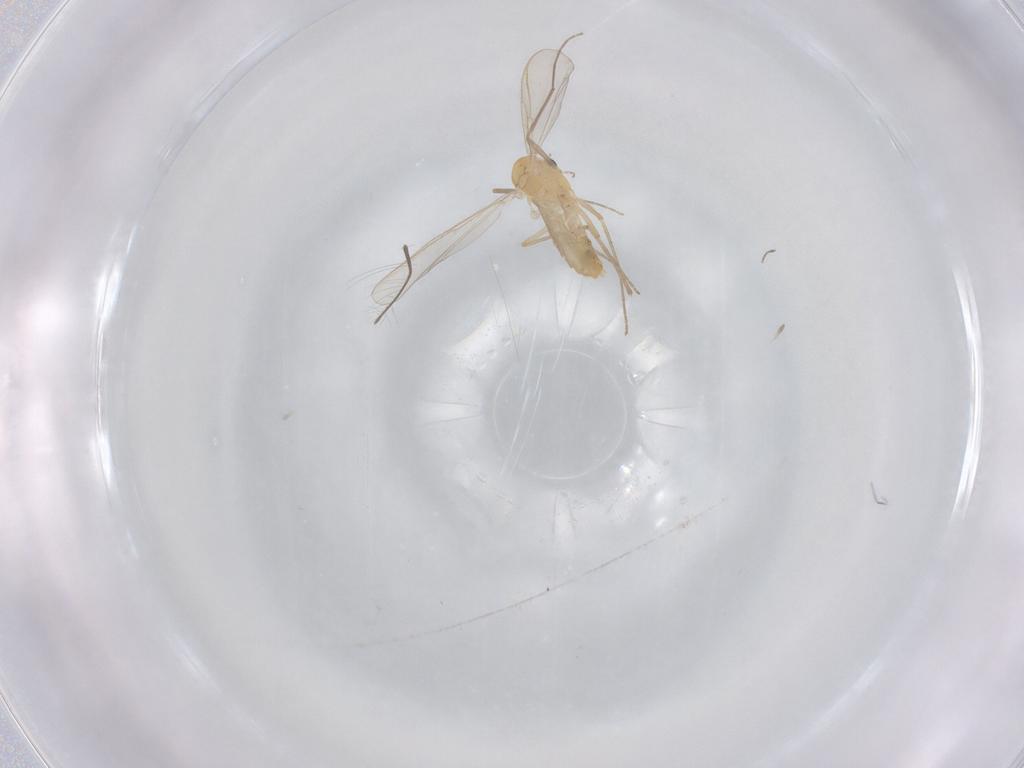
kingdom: Animalia
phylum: Arthropoda
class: Insecta
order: Diptera
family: Chironomidae
